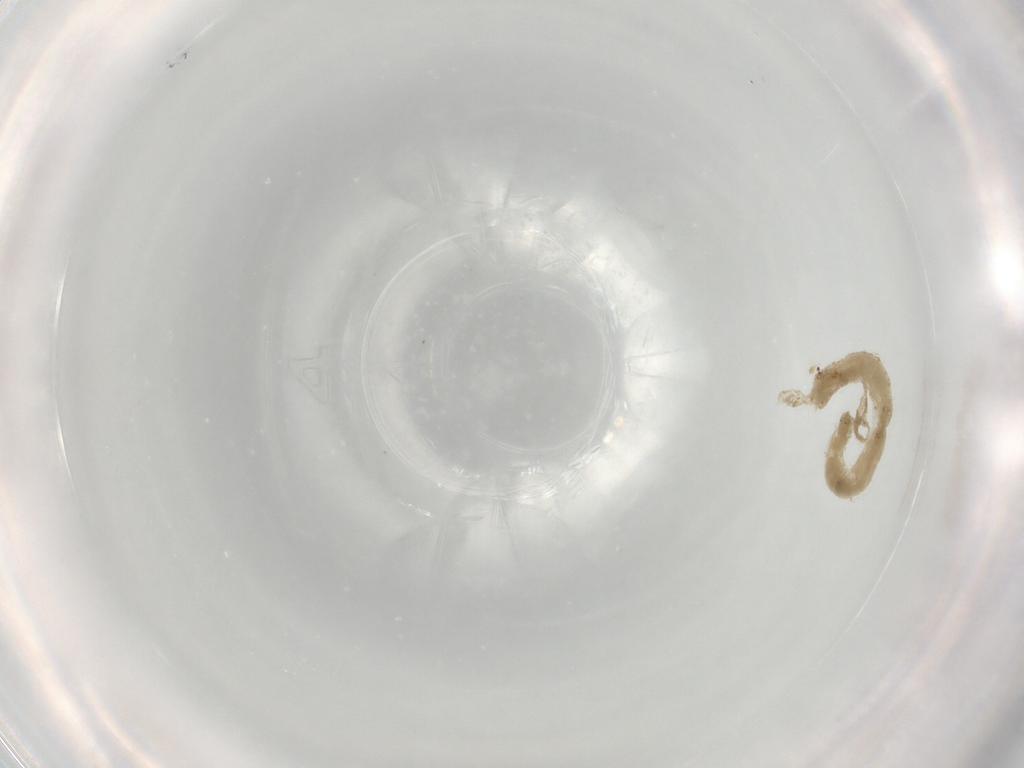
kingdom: Animalia
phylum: Arthropoda
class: Insecta
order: Diptera
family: Chironomidae
